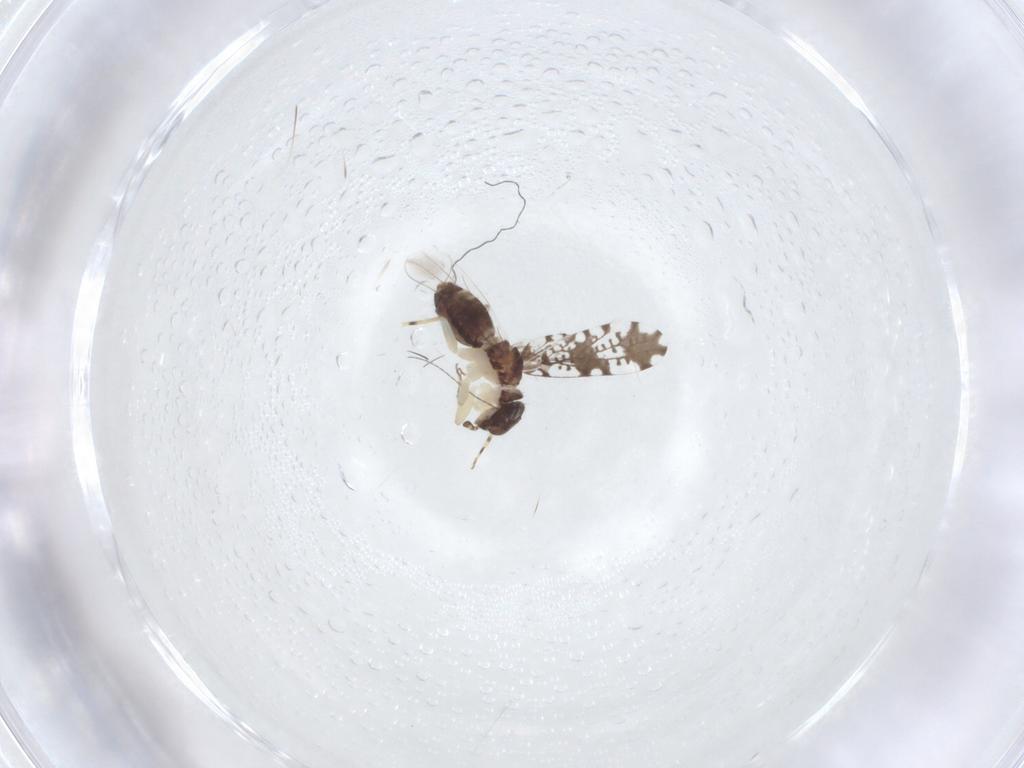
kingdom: Animalia
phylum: Arthropoda
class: Insecta
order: Psocodea
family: Psoquillidae
